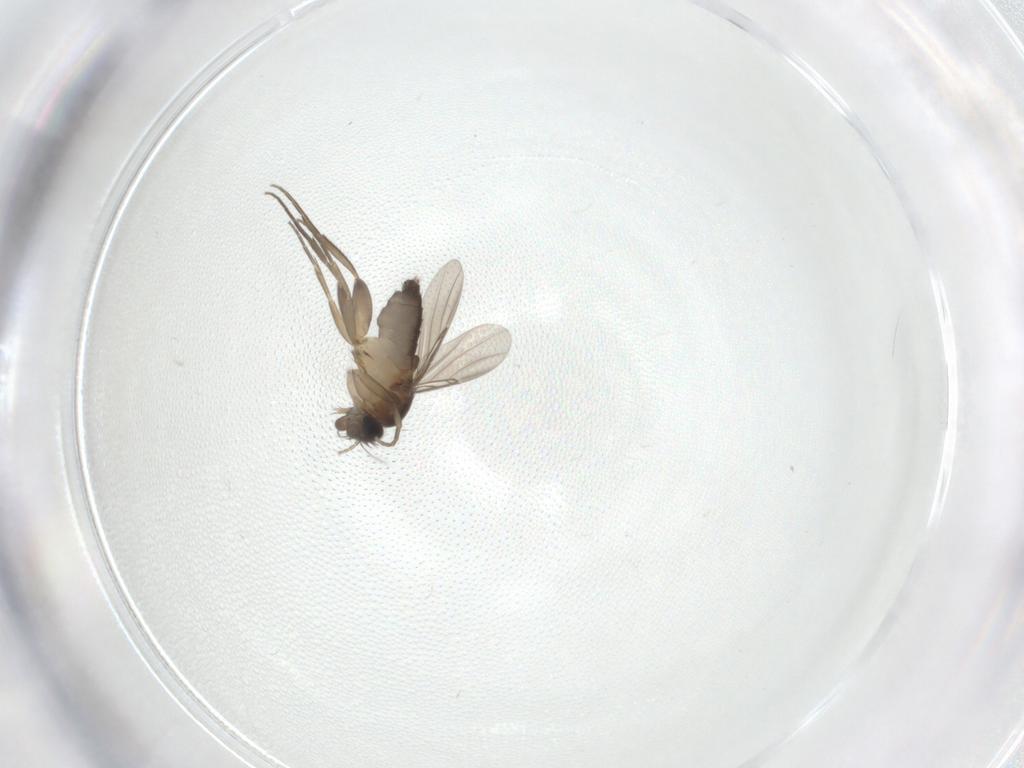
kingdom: Animalia
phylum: Arthropoda
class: Insecta
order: Diptera
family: Phoridae
